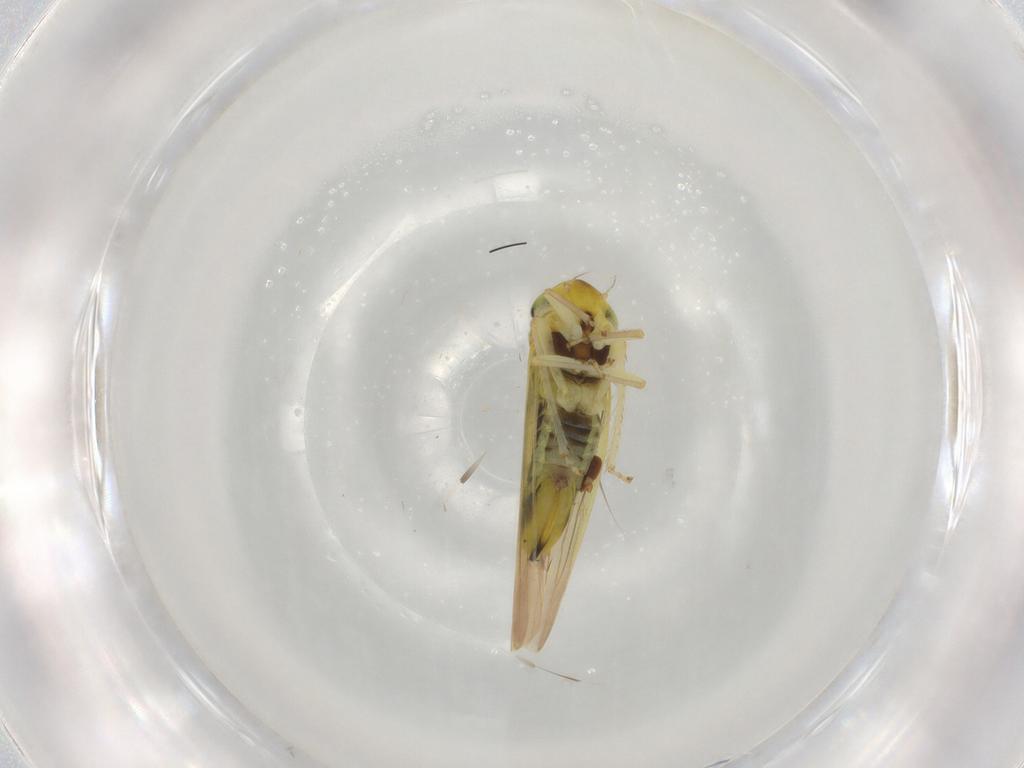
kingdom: Animalia
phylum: Arthropoda
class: Insecta
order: Hemiptera
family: Cicadellidae
